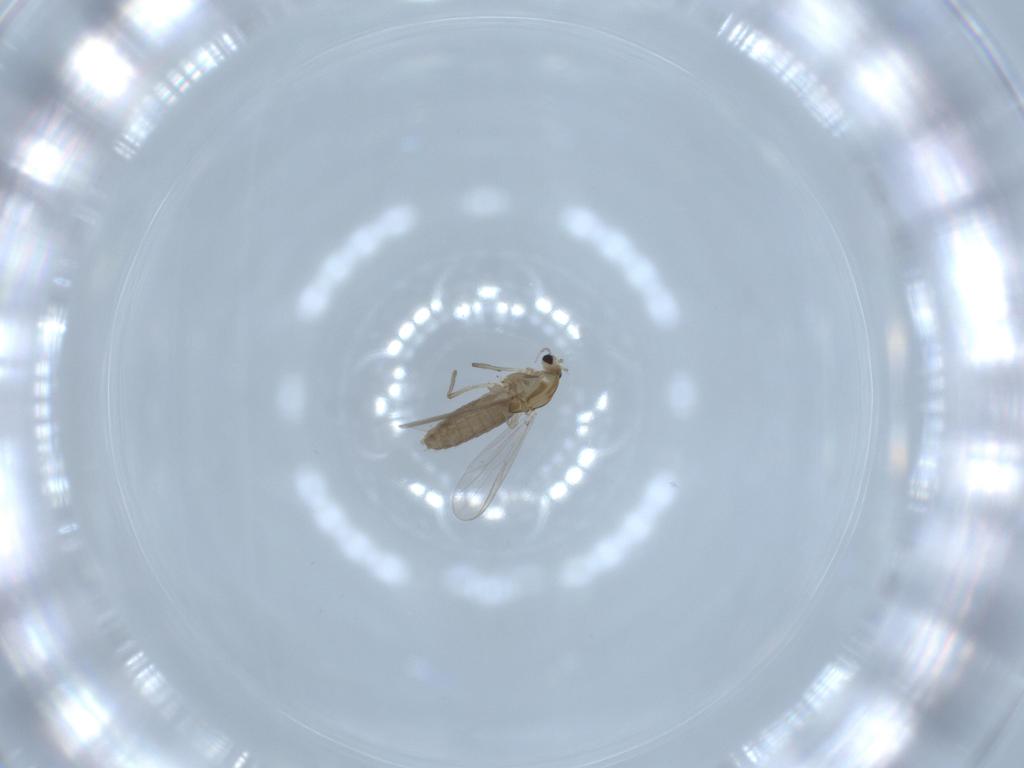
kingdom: Animalia
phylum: Arthropoda
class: Insecta
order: Diptera
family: Chironomidae
